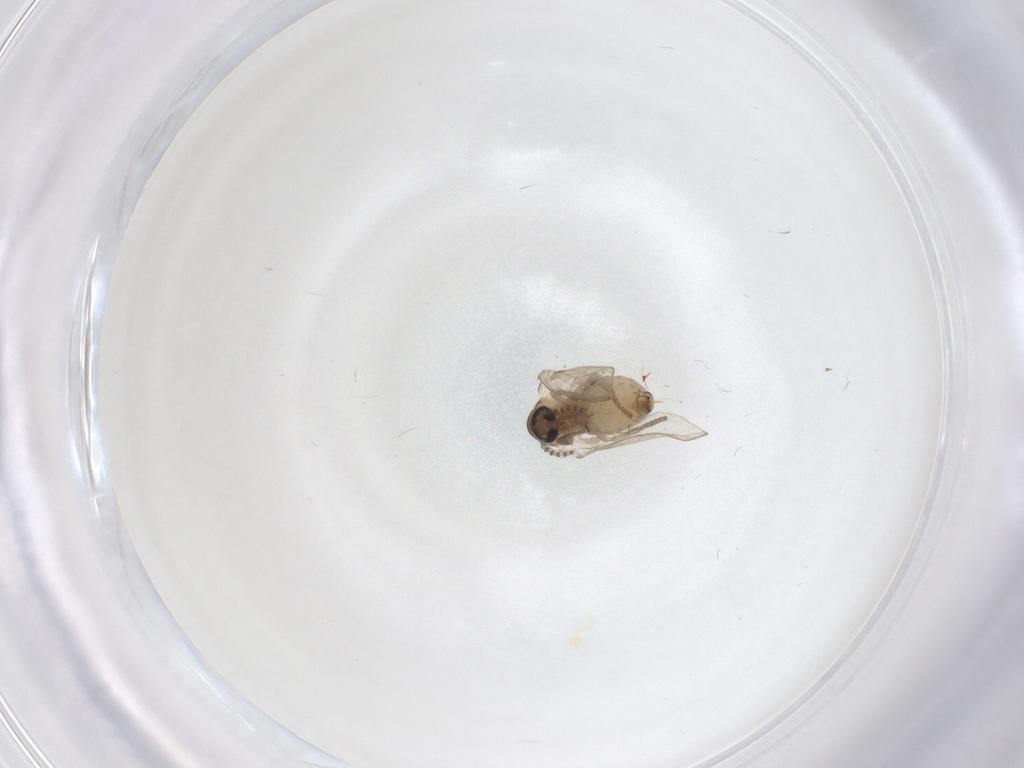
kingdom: Animalia
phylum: Arthropoda
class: Insecta
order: Diptera
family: Psychodidae
